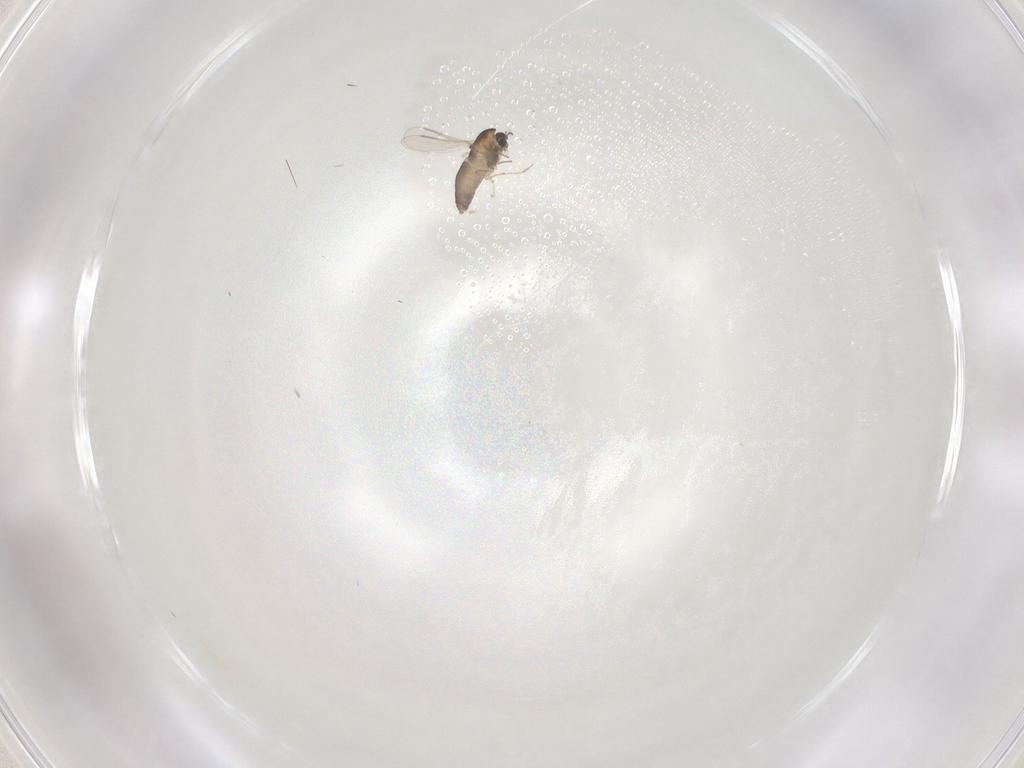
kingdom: Animalia
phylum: Arthropoda
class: Insecta
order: Diptera
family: Chironomidae
